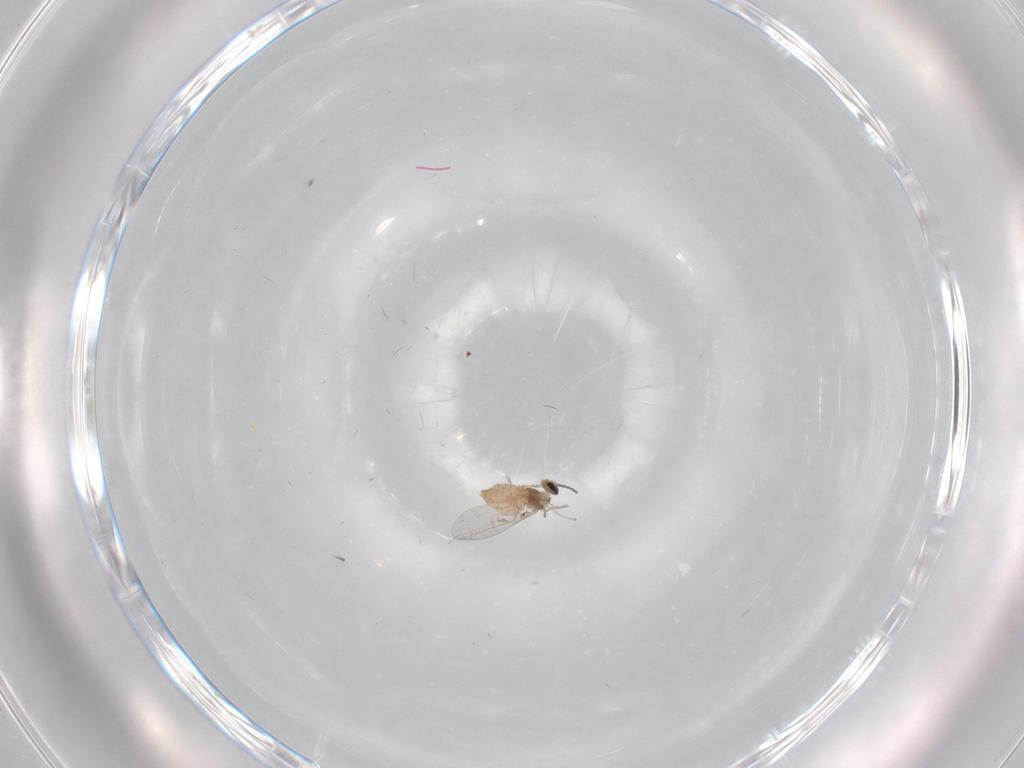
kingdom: Animalia
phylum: Arthropoda
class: Insecta
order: Diptera
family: Cecidomyiidae
